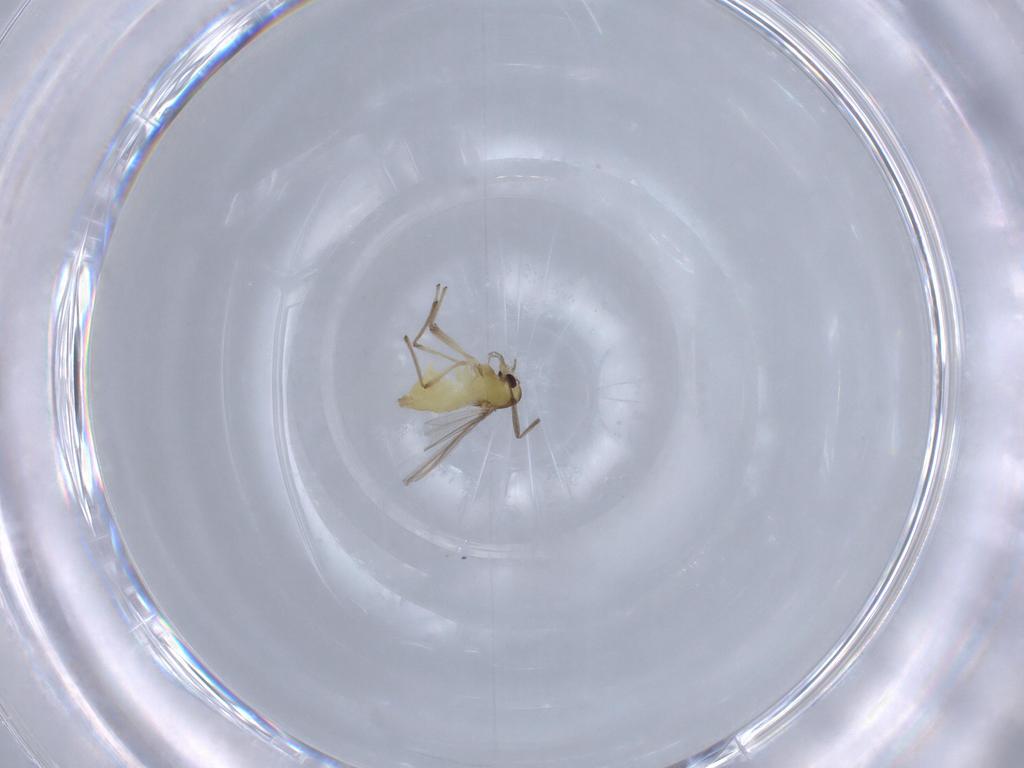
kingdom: Animalia
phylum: Arthropoda
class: Insecta
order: Diptera
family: Chironomidae
